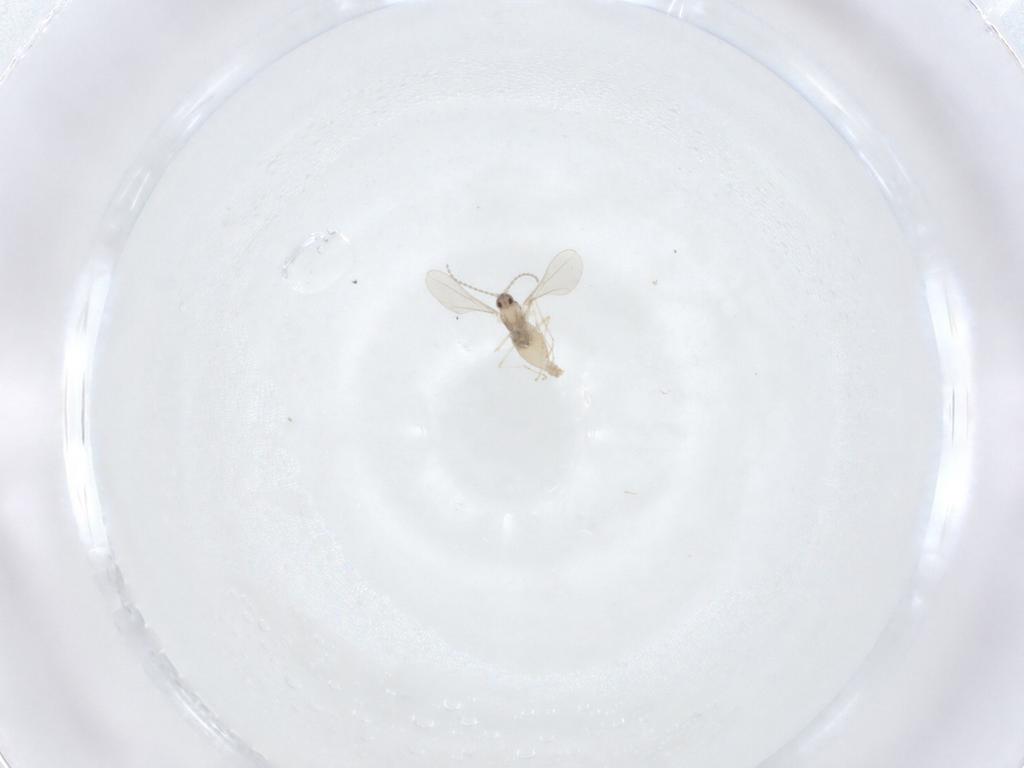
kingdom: Animalia
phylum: Arthropoda
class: Insecta
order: Diptera
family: Cecidomyiidae
